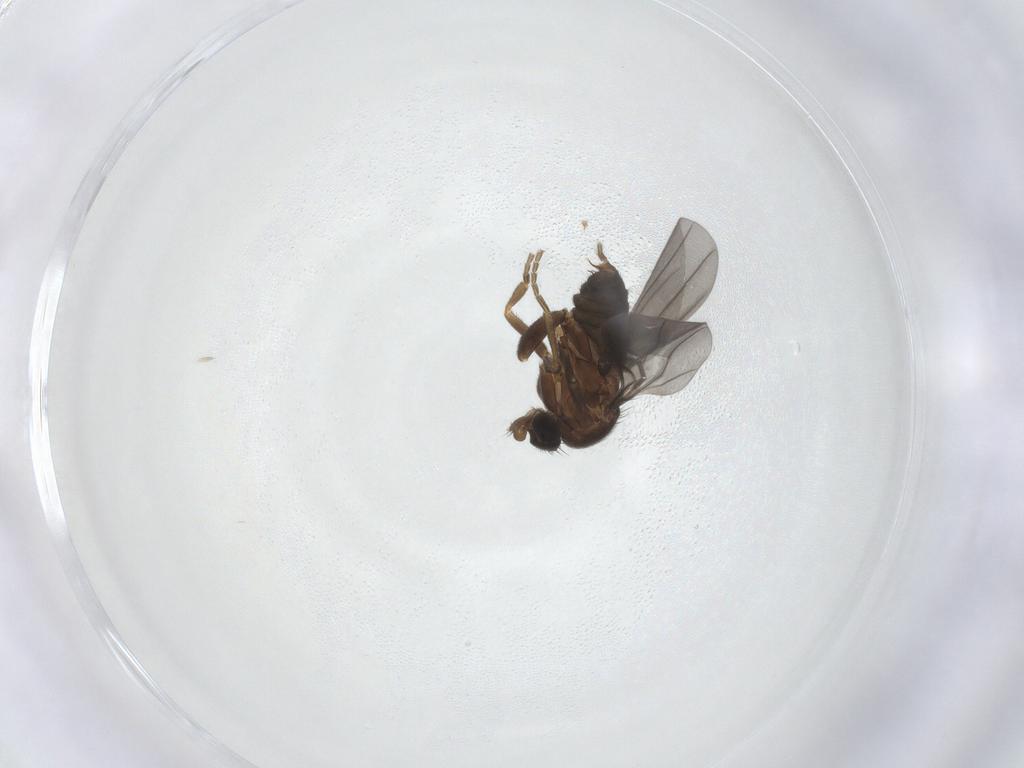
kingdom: Animalia
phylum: Arthropoda
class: Insecta
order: Diptera
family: Phoridae
